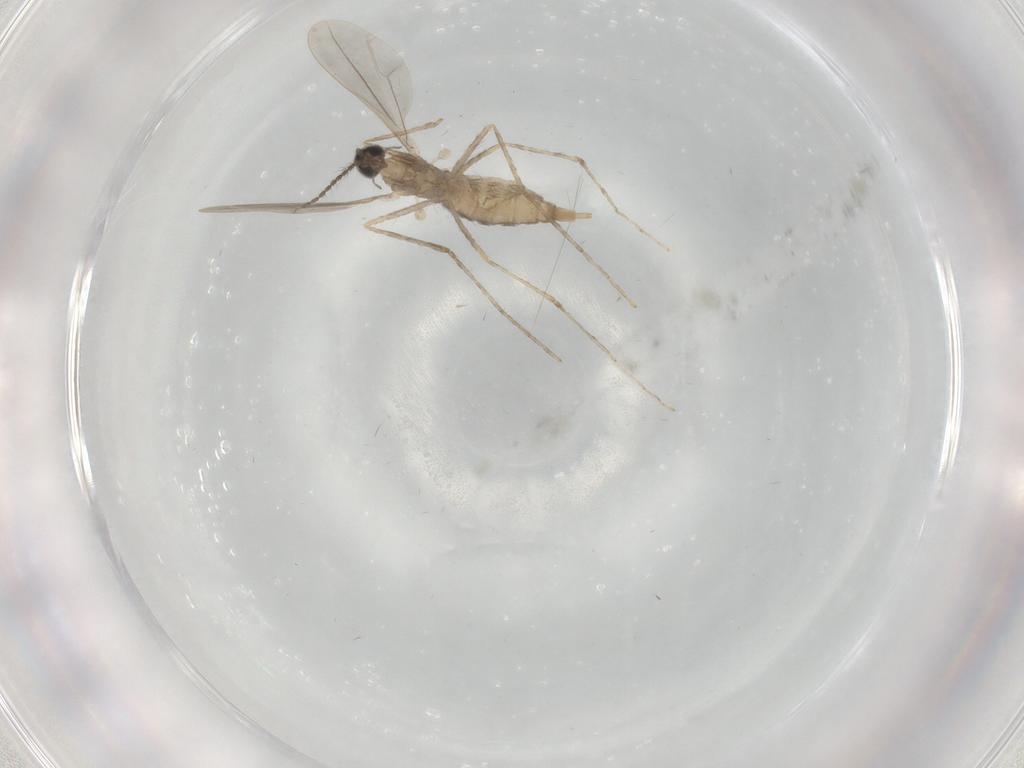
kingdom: Animalia
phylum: Arthropoda
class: Insecta
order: Diptera
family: Cecidomyiidae
